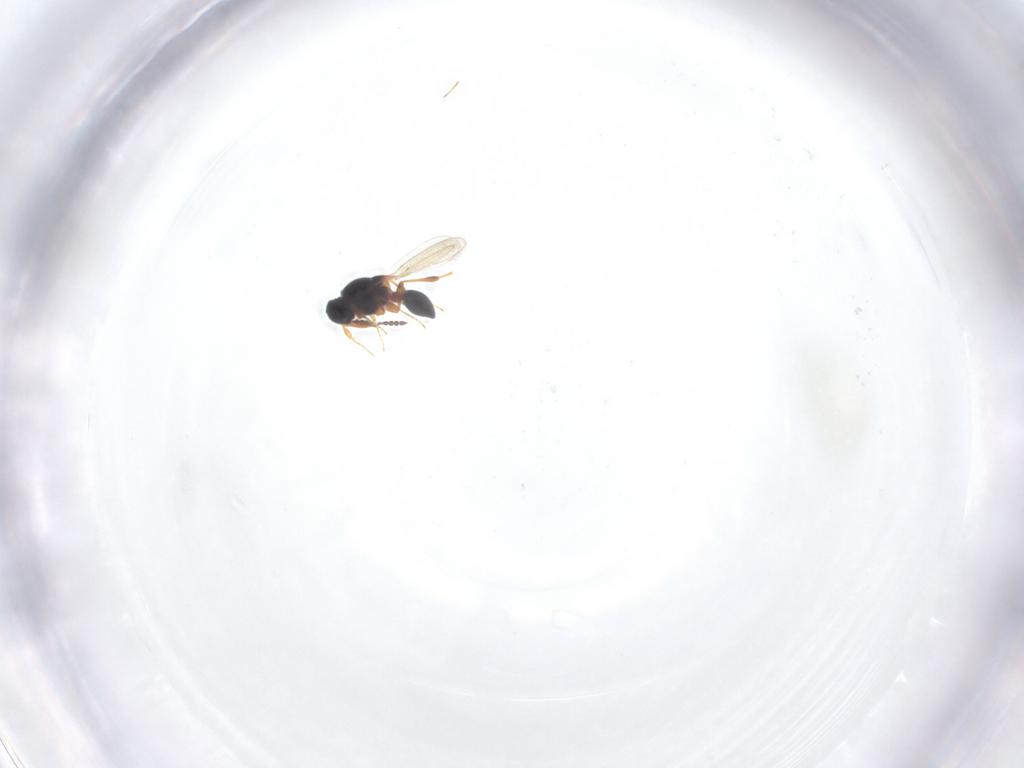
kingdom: Animalia
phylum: Arthropoda
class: Insecta
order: Hymenoptera
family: Platygastridae
